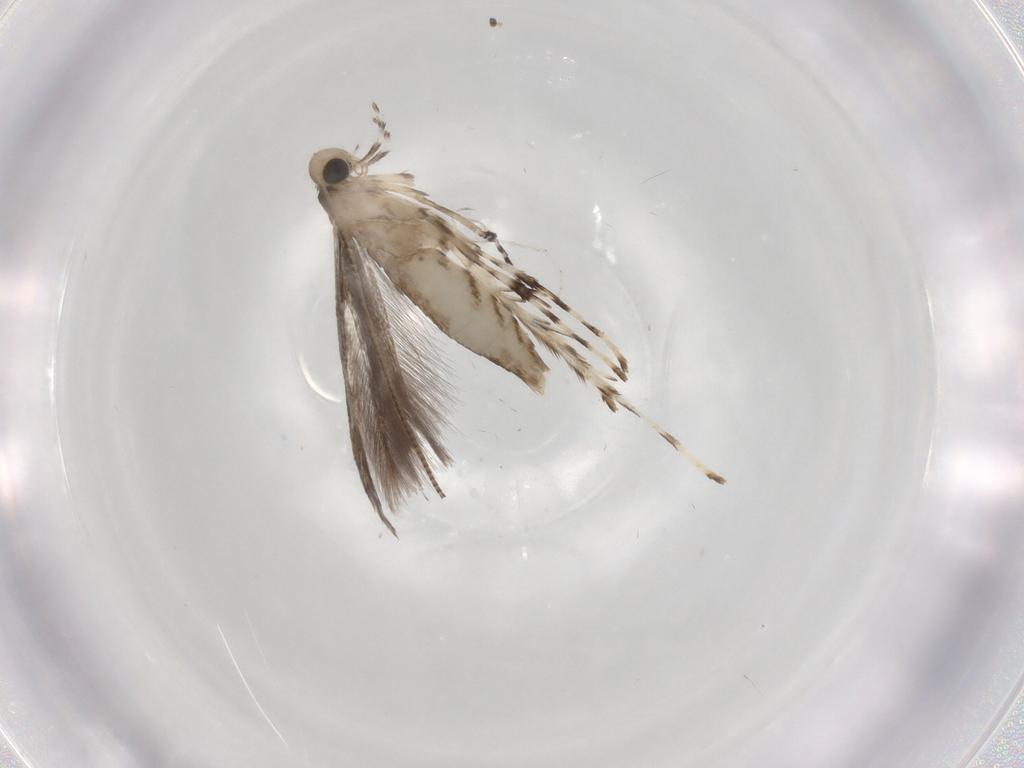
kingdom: Animalia
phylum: Arthropoda
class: Insecta
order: Lepidoptera
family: Gracillariidae
